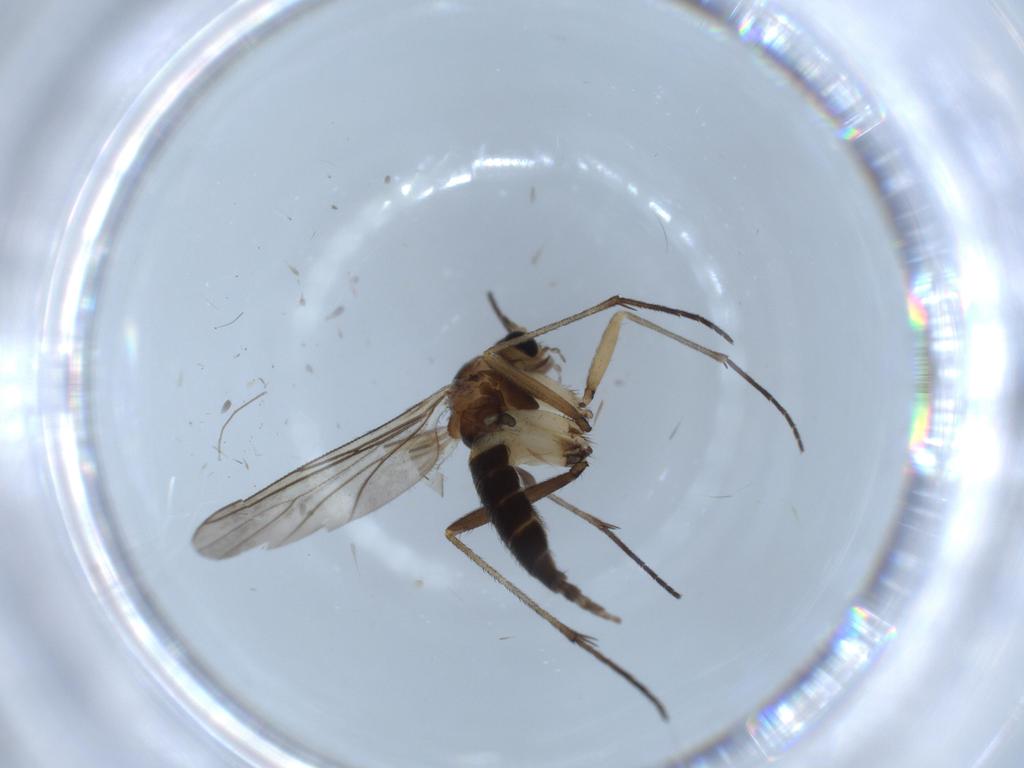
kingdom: Animalia
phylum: Arthropoda
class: Insecta
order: Diptera
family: Sciaridae
